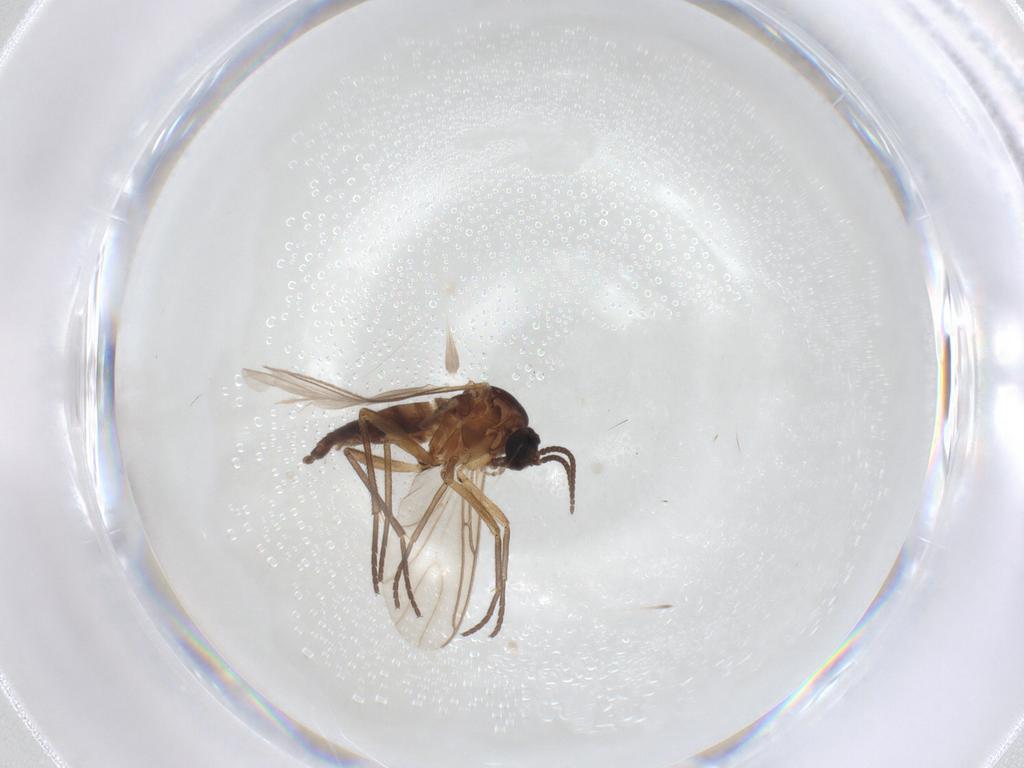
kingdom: Animalia
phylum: Arthropoda
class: Insecta
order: Diptera
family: Sciaridae
